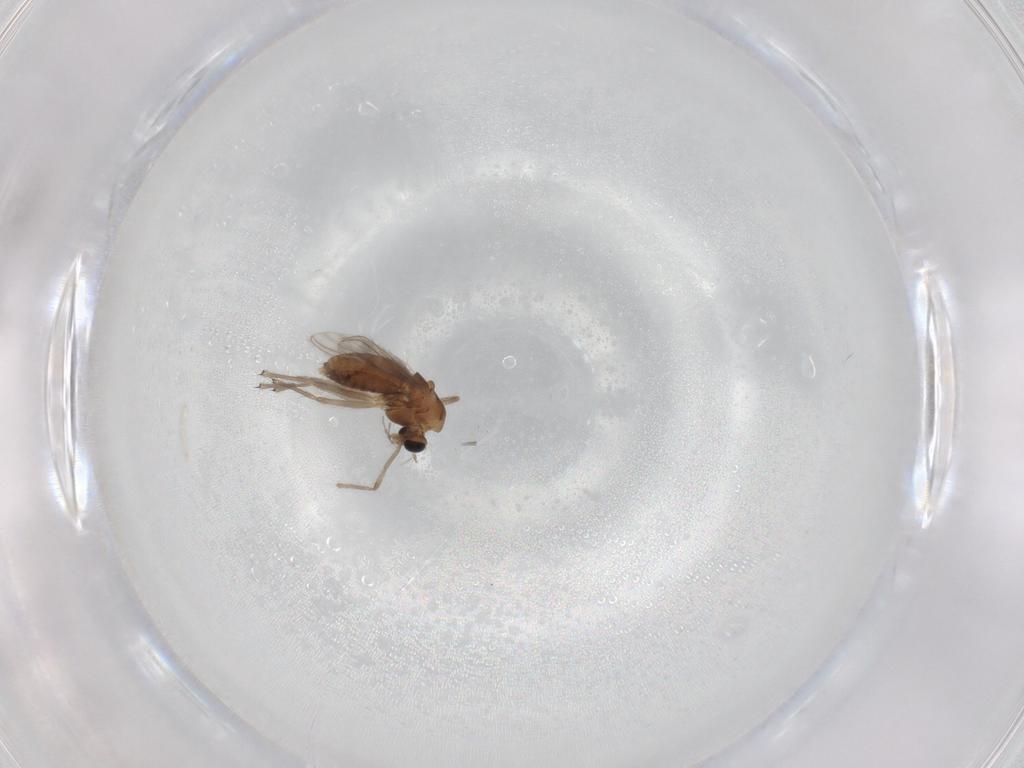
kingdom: Animalia
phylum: Arthropoda
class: Insecta
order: Diptera
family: Chironomidae
